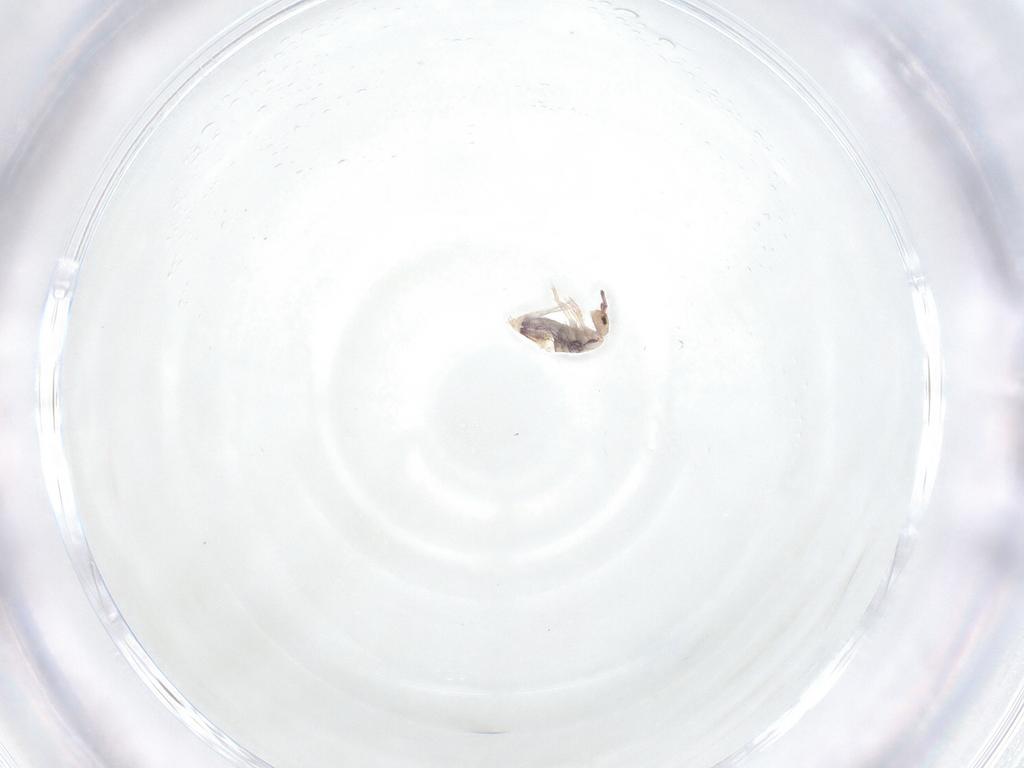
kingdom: Animalia
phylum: Arthropoda
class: Collembola
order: Entomobryomorpha
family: Entomobryidae
